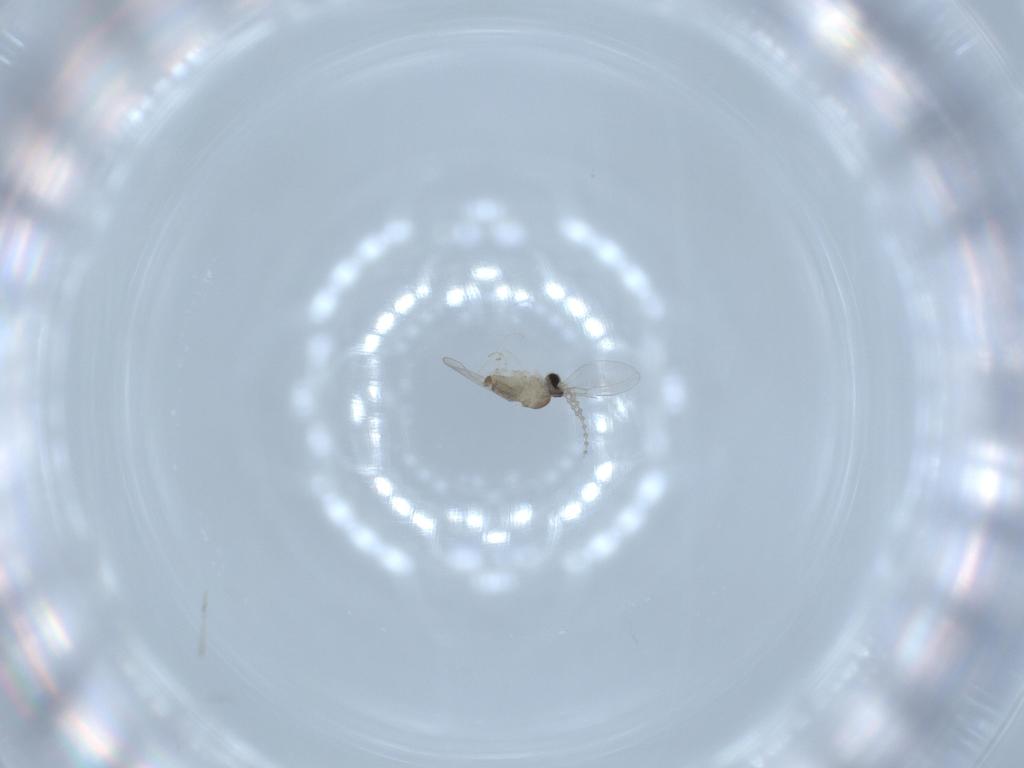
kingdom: Animalia
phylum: Arthropoda
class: Insecta
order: Diptera
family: Cecidomyiidae
